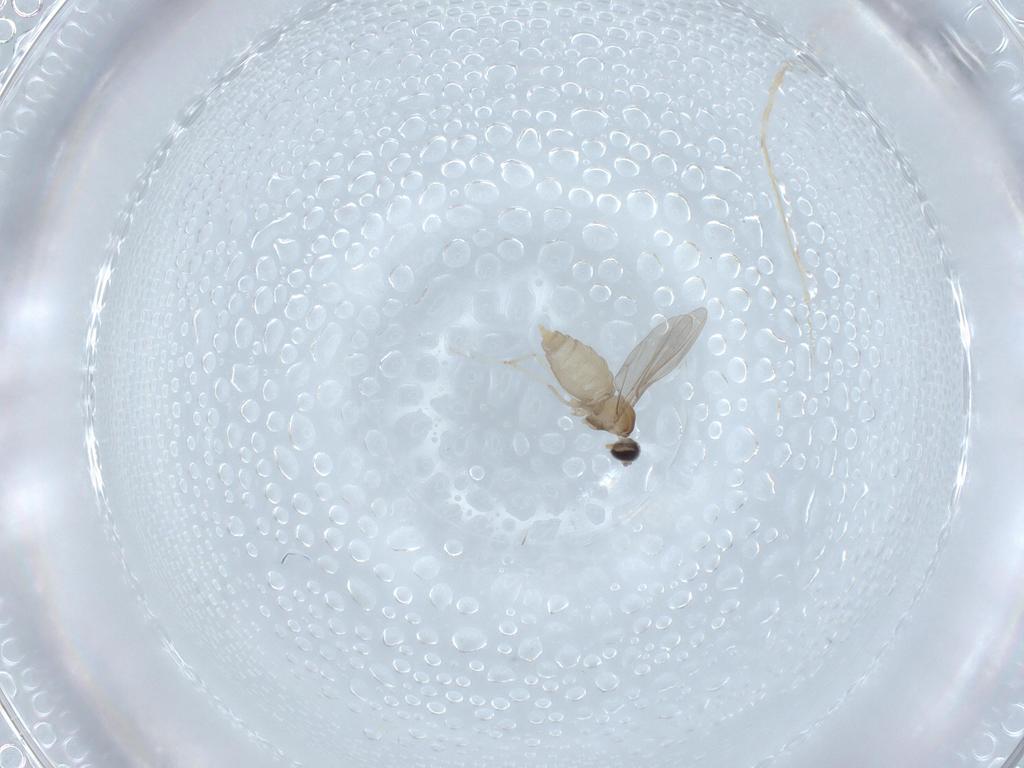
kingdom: Animalia
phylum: Arthropoda
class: Insecta
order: Diptera
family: Cecidomyiidae
